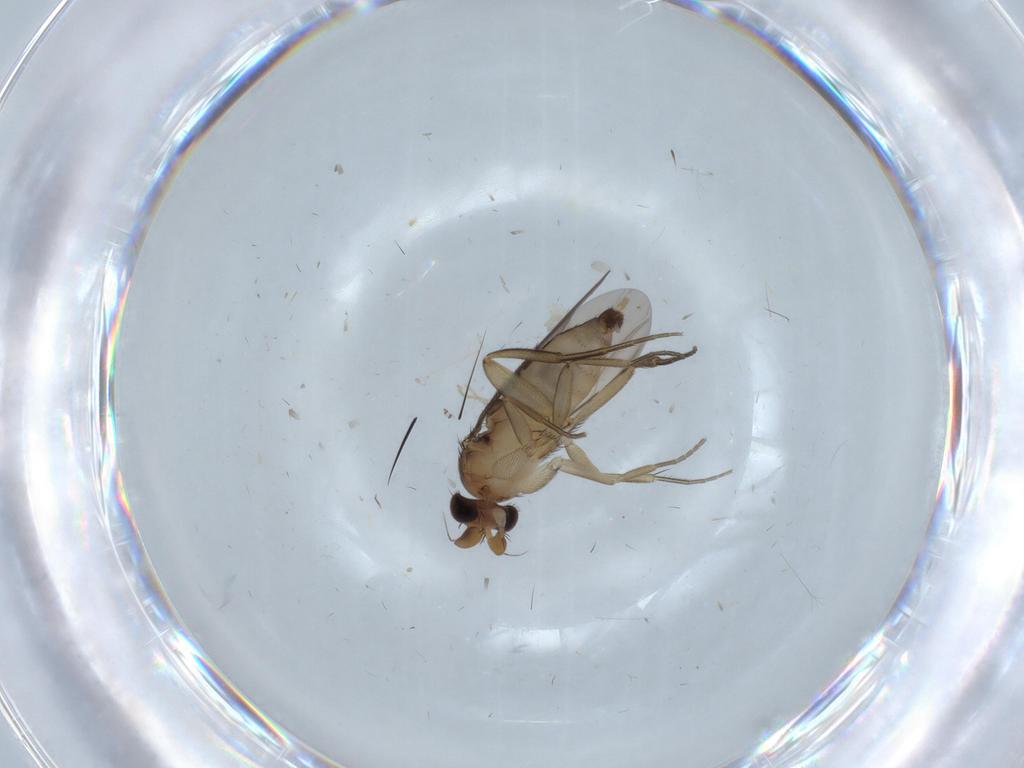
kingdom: Animalia
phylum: Arthropoda
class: Insecta
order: Diptera
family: Phoridae
